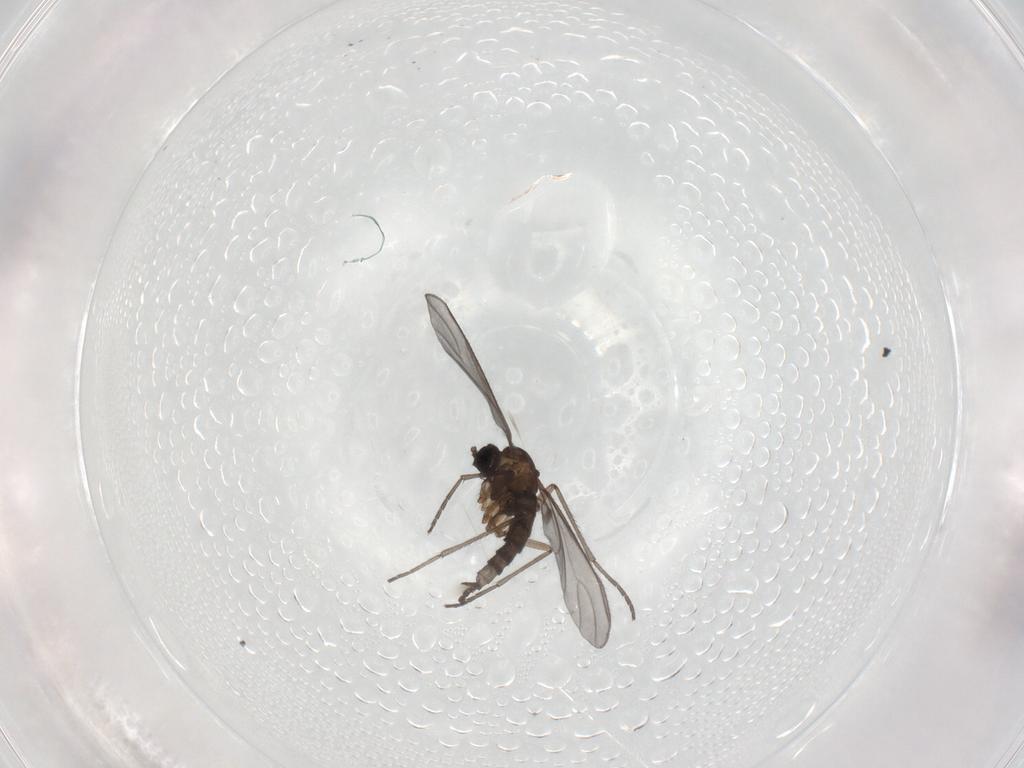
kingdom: Animalia
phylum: Arthropoda
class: Insecta
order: Diptera
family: Sciaridae
